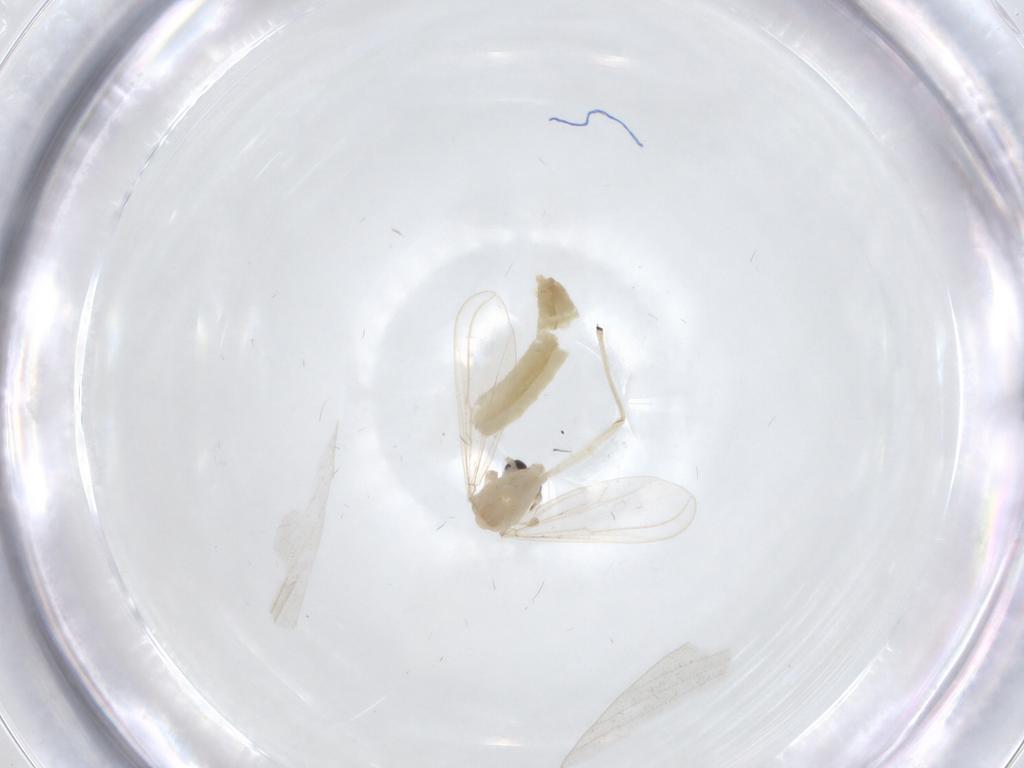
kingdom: Animalia
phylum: Arthropoda
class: Insecta
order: Diptera
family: Chironomidae
